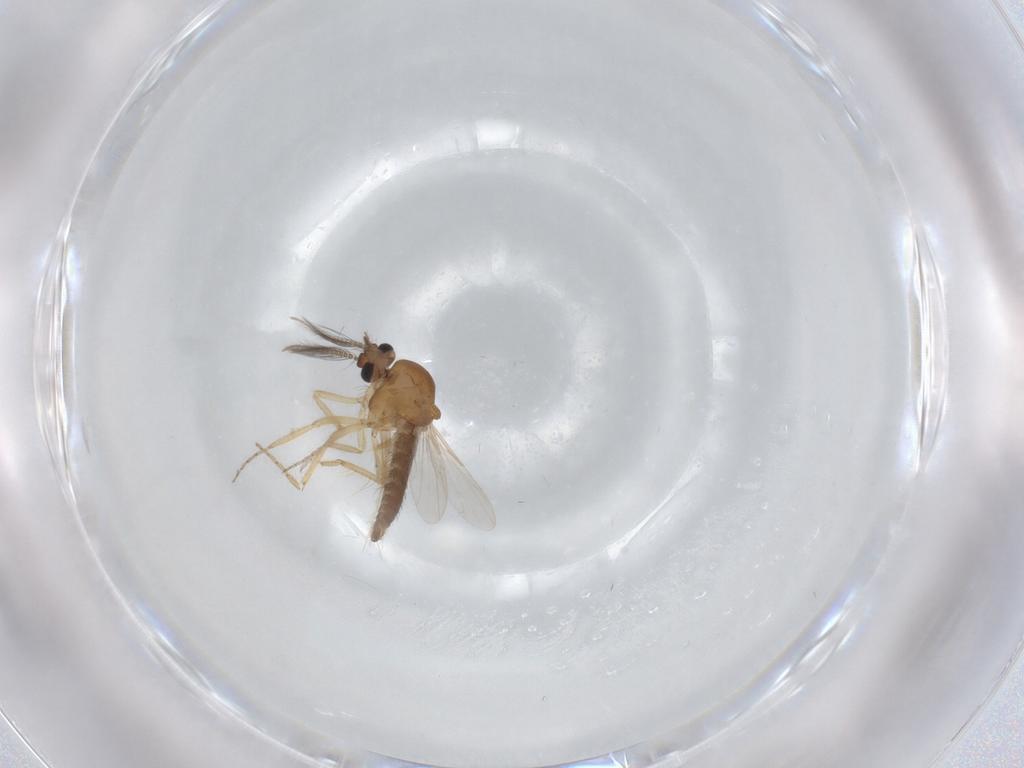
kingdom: Animalia
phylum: Arthropoda
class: Insecta
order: Diptera
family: Ceratopogonidae
